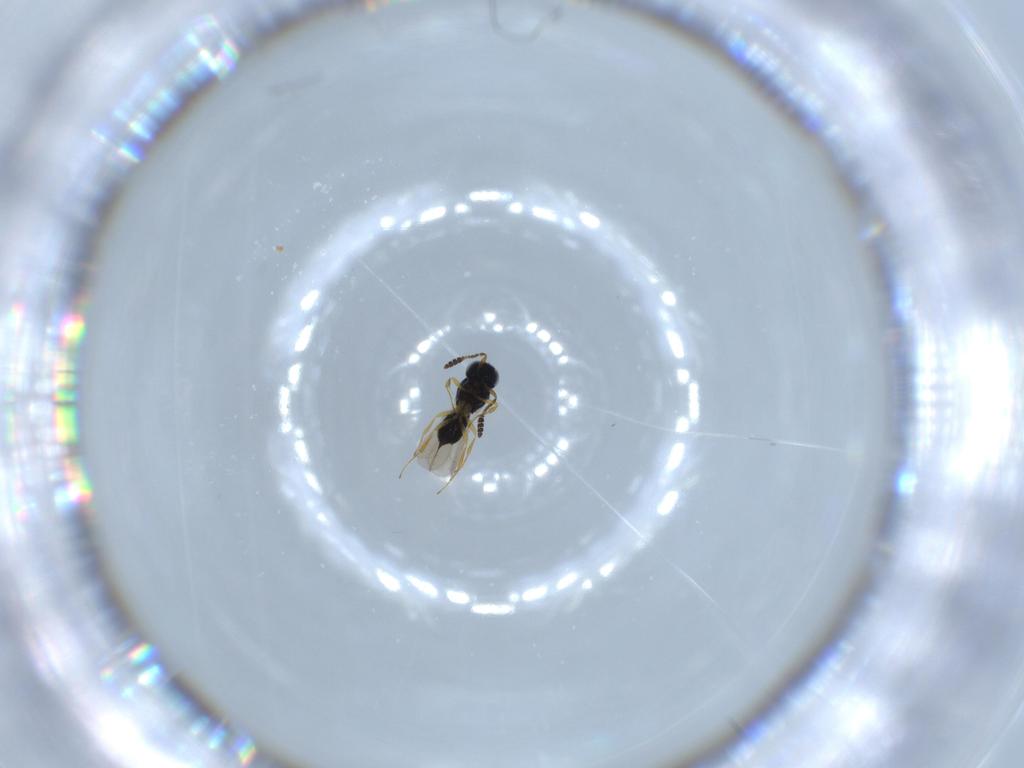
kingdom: Animalia
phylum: Arthropoda
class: Insecta
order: Hymenoptera
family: Scelionidae
